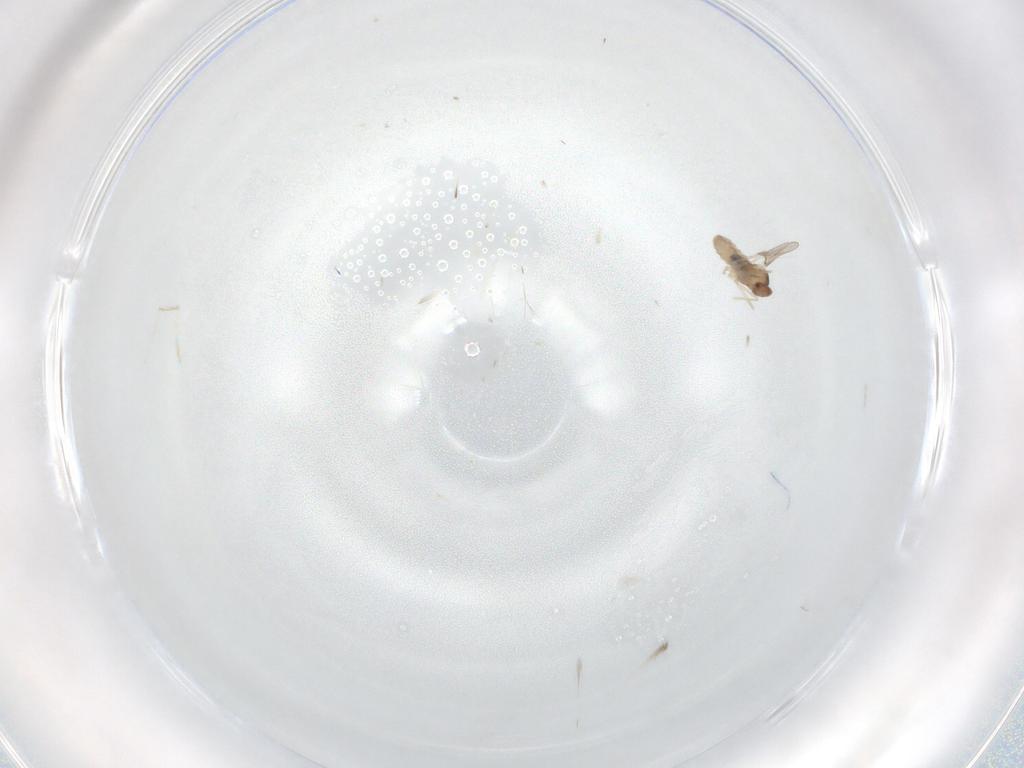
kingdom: Animalia
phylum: Arthropoda
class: Insecta
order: Diptera
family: Cecidomyiidae
